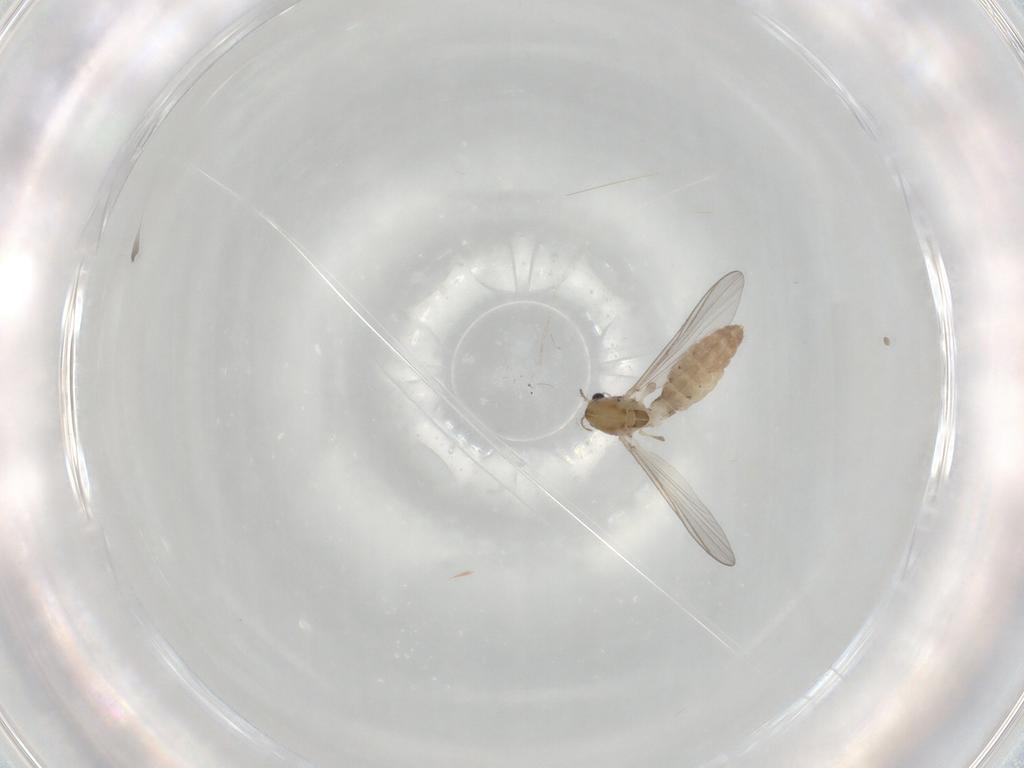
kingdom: Animalia
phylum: Arthropoda
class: Insecta
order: Diptera
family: Chironomidae
